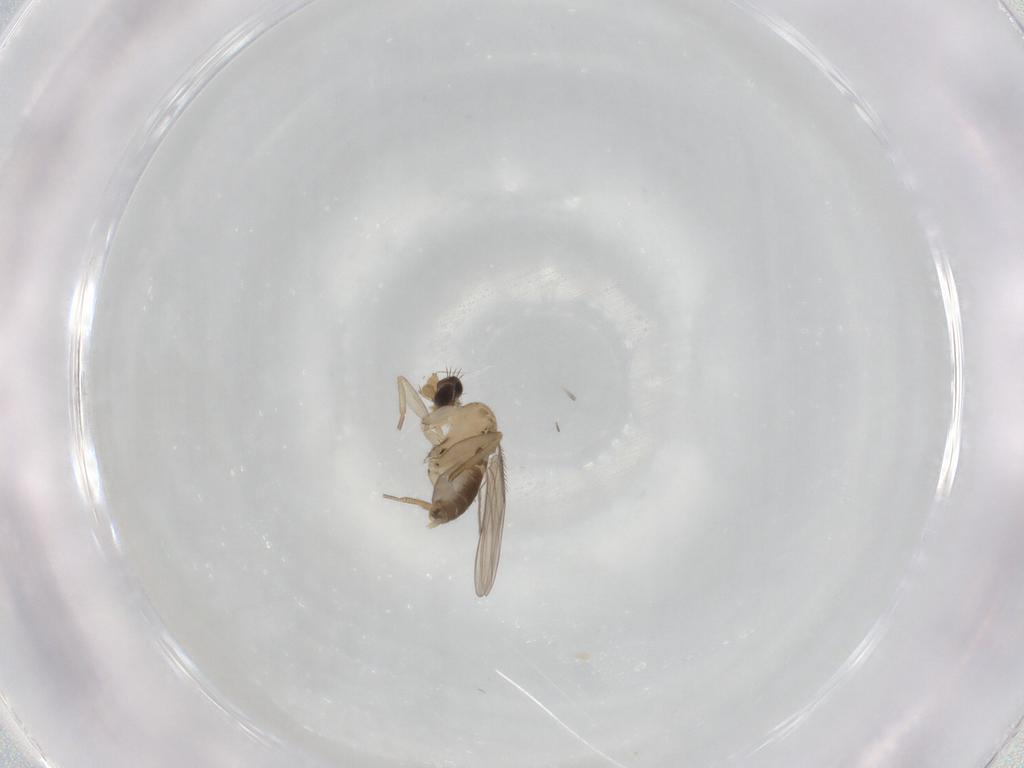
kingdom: Animalia
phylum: Arthropoda
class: Insecta
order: Diptera
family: Phoridae
